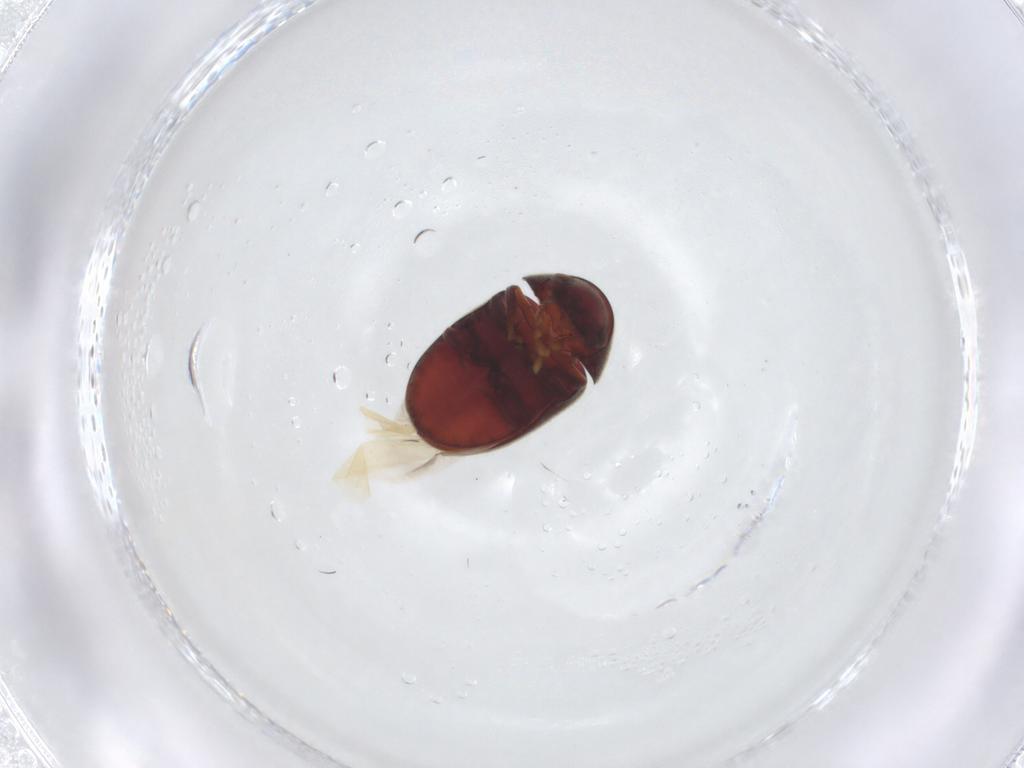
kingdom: Animalia
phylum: Arthropoda
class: Insecta
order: Coleoptera
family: Ptinidae
